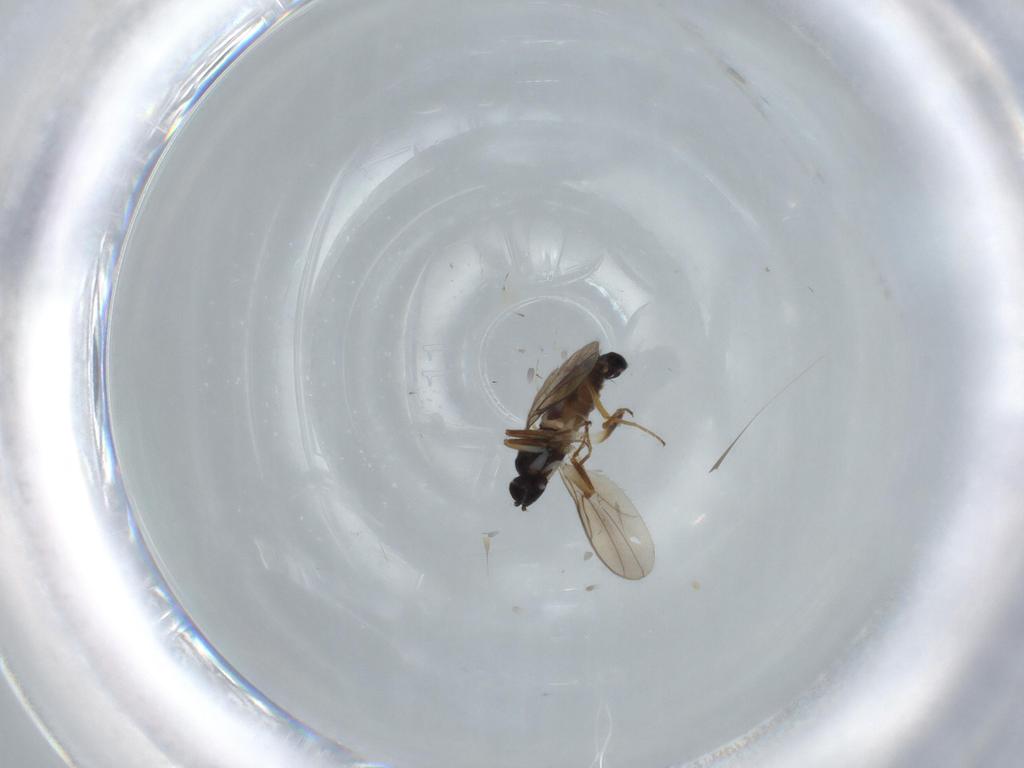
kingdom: Animalia
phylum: Arthropoda
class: Insecta
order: Diptera
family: Hybotidae
